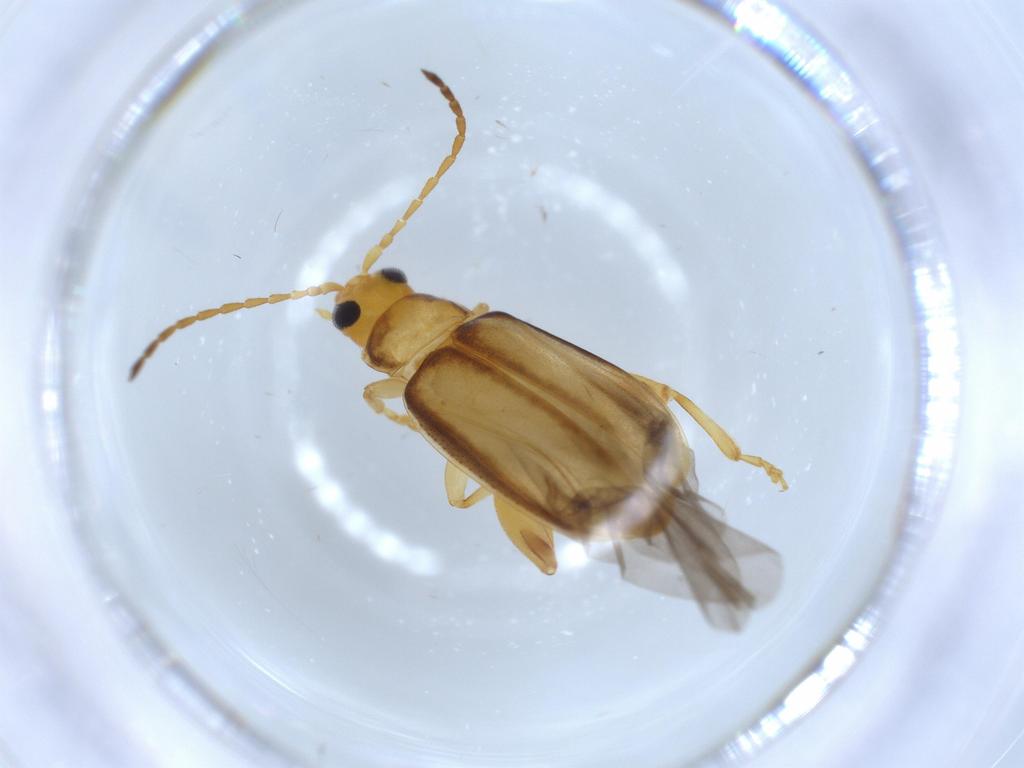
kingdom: Animalia
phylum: Arthropoda
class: Insecta
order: Coleoptera
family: Chrysomelidae
